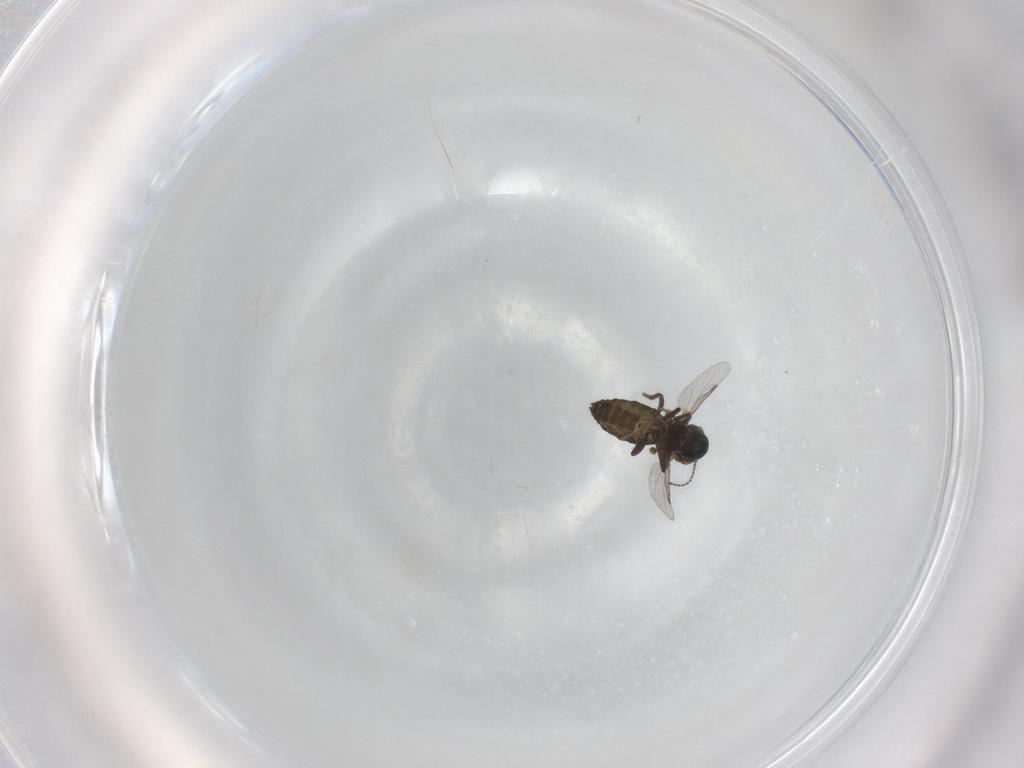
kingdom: Animalia
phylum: Arthropoda
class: Insecta
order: Diptera
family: Ceratopogonidae
